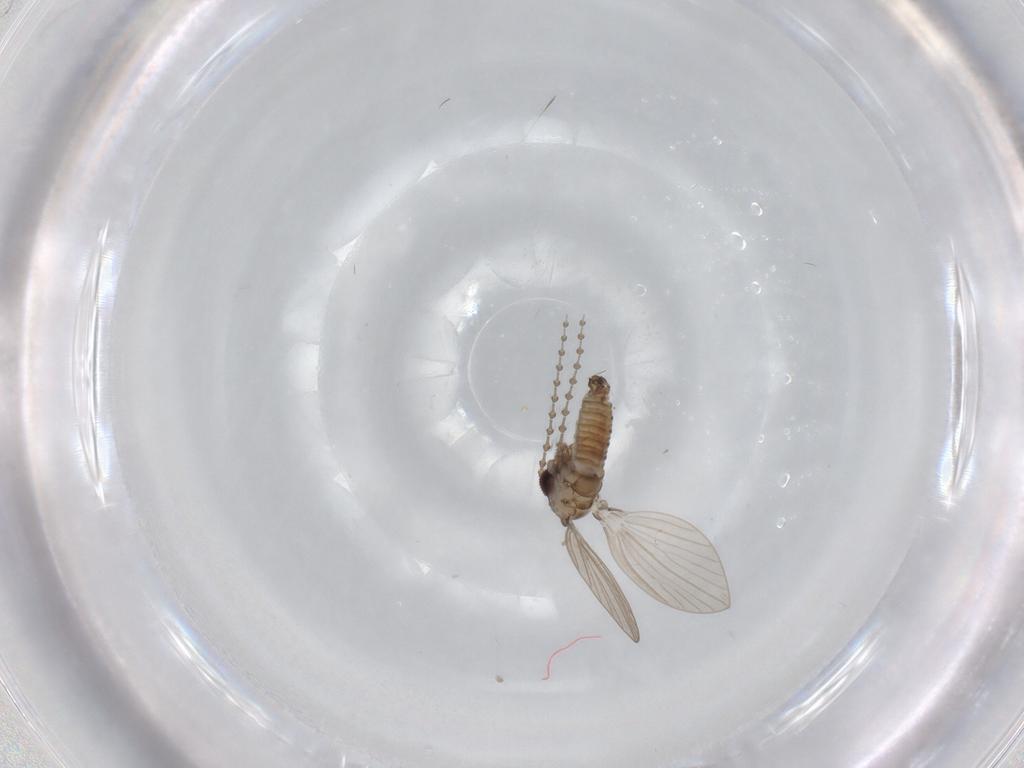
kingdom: Animalia
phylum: Arthropoda
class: Insecta
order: Diptera
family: Psychodidae
